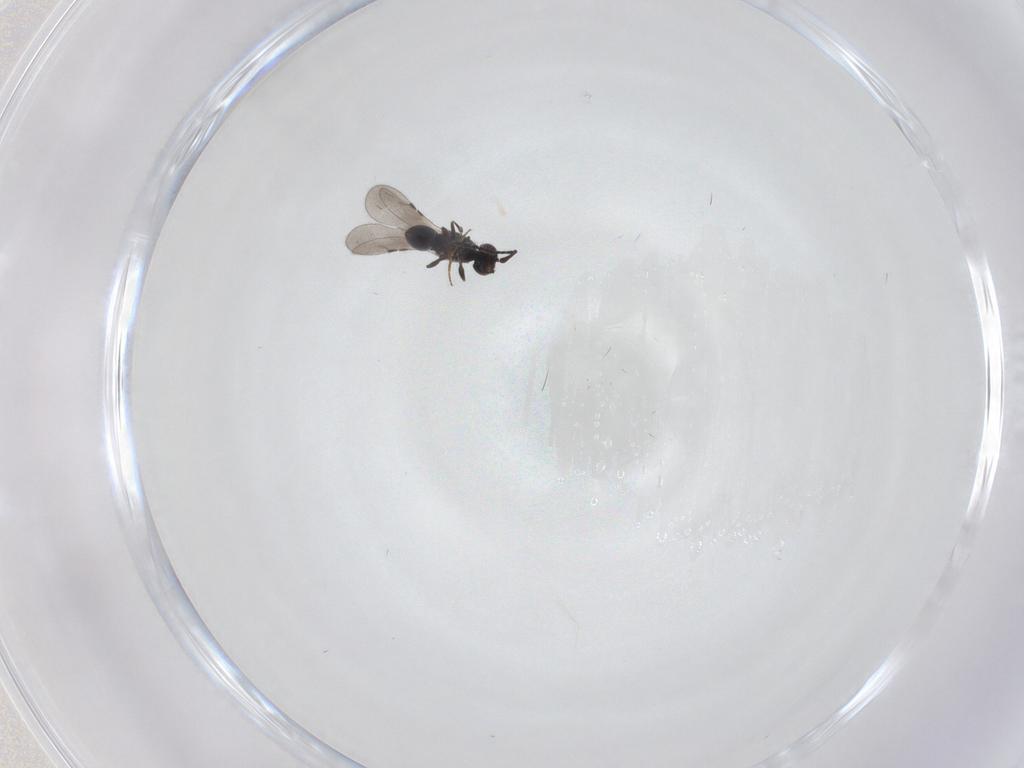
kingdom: Animalia
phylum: Arthropoda
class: Insecta
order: Hymenoptera
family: Ceraphronidae
